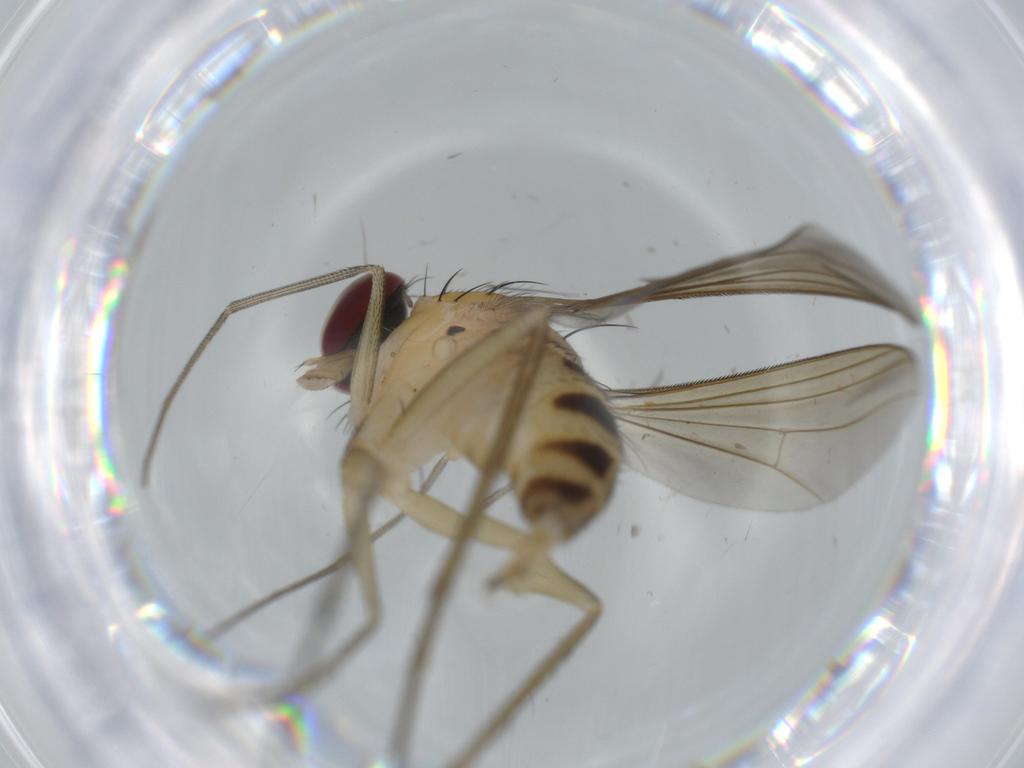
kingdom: Animalia
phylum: Arthropoda
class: Insecta
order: Diptera
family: Dolichopodidae
